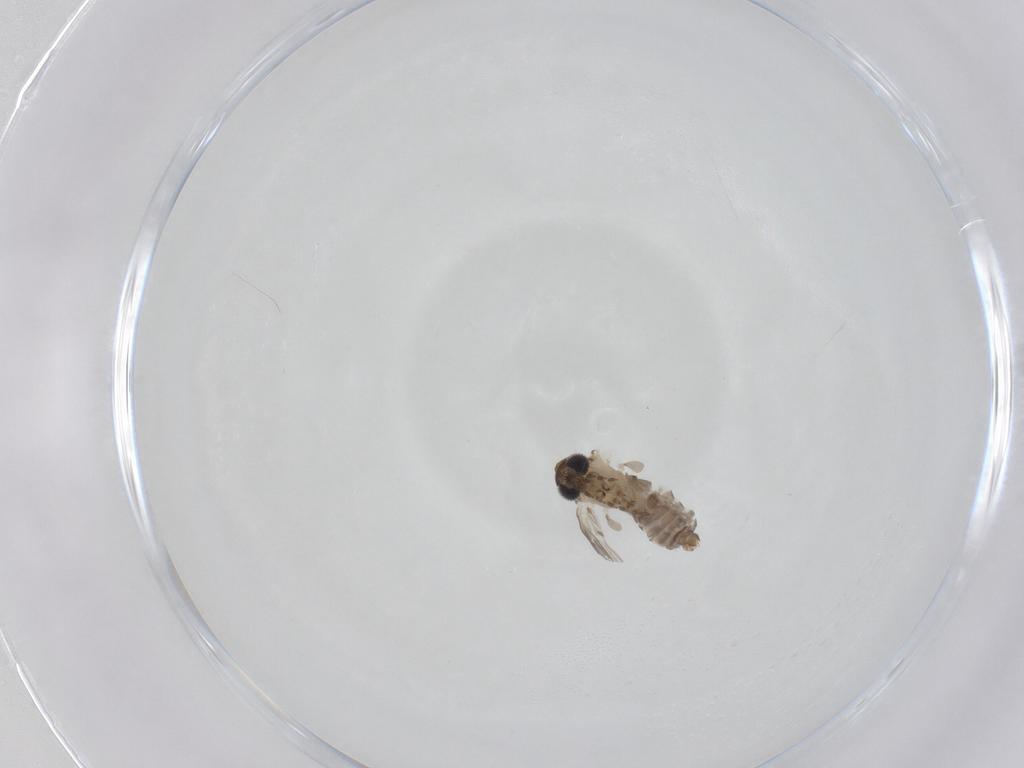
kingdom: Animalia
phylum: Arthropoda
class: Insecta
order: Diptera
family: Psychodidae
